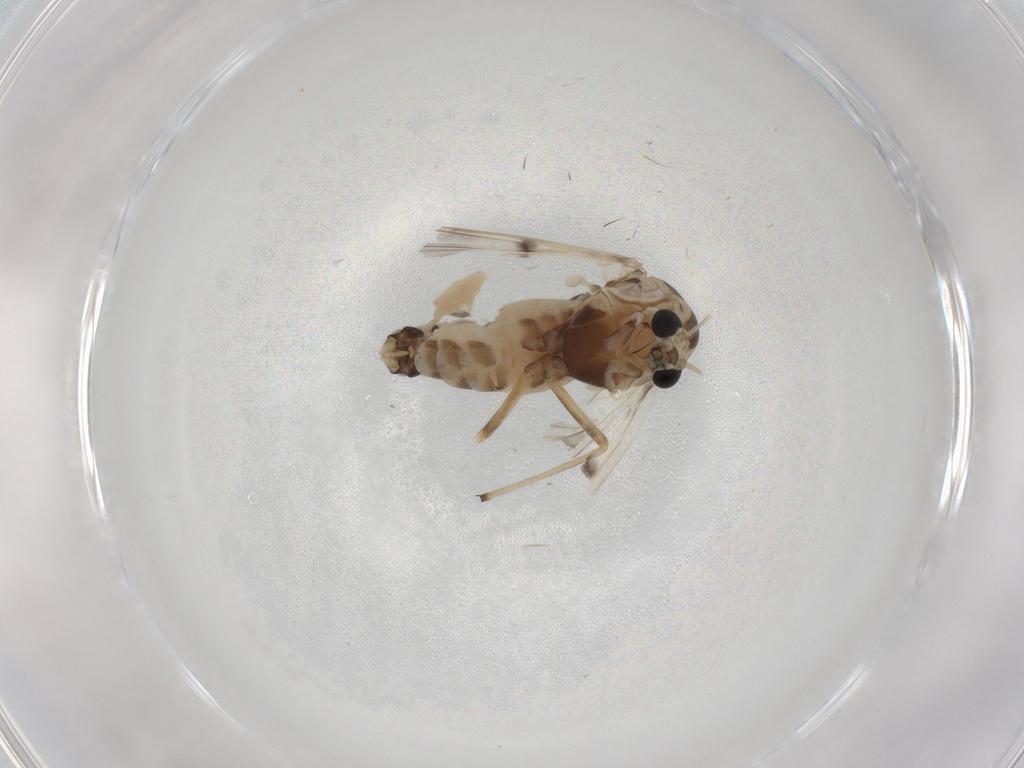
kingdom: Animalia
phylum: Arthropoda
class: Insecta
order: Diptera
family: Chironomidae
